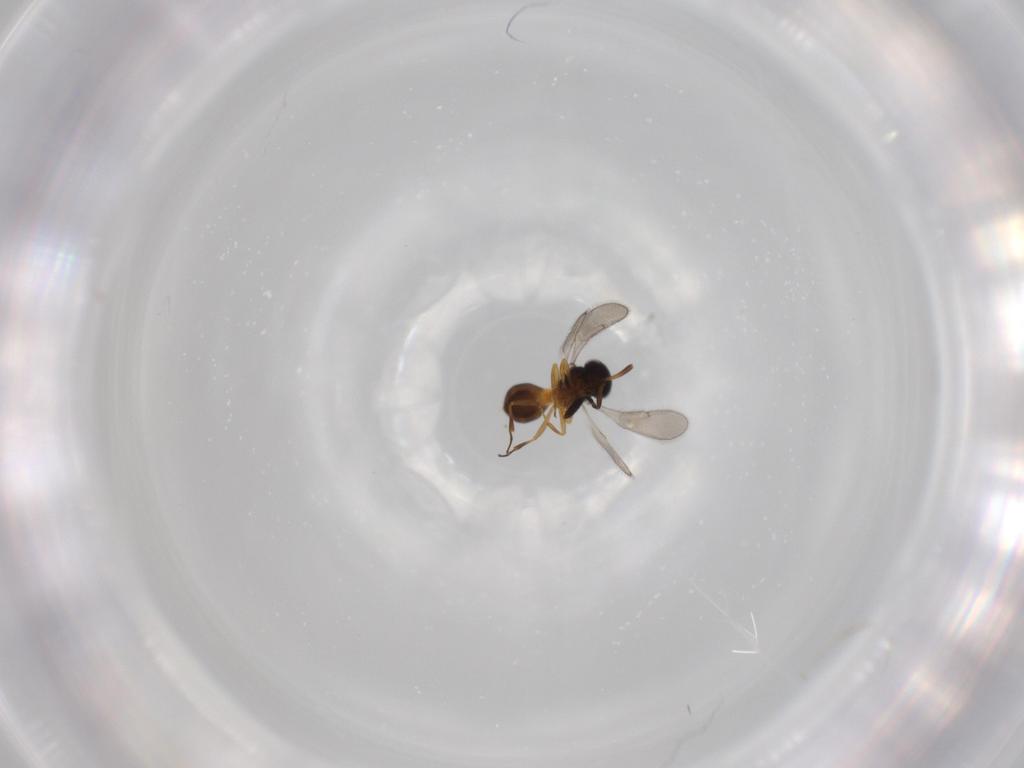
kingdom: Animalia
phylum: Arthropoda
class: Insecta
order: Hymenoptera
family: Scelionidae
